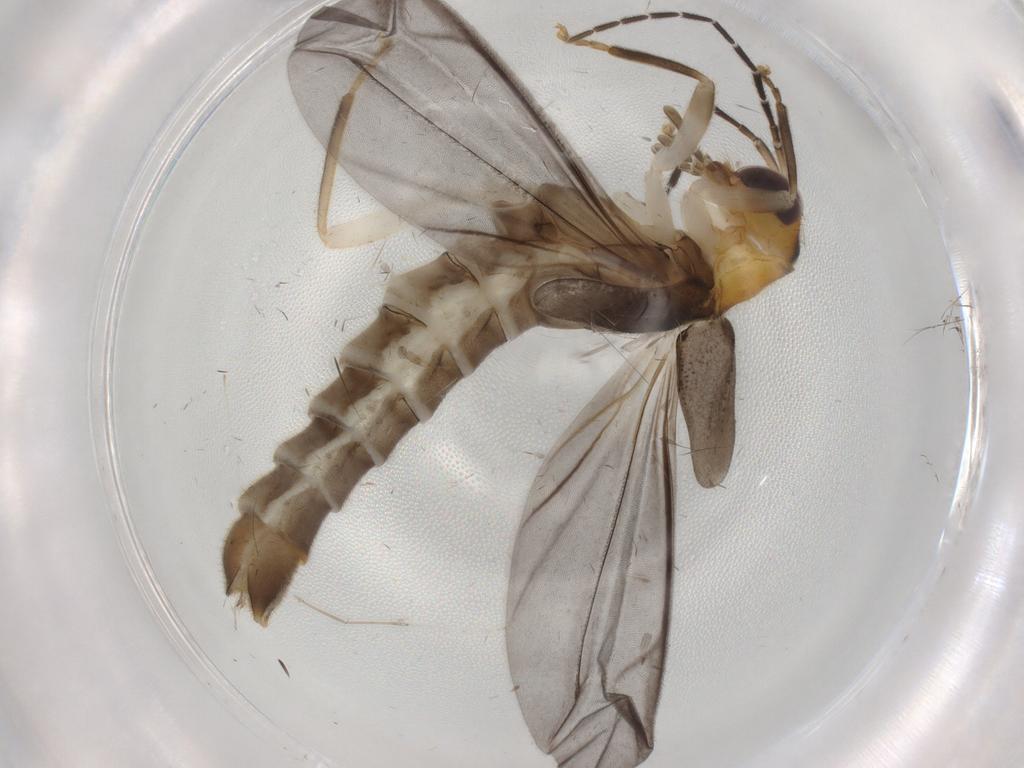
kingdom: Animalia
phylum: Arthropoda
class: Insecta
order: Coleoptera
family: Cantharidae
